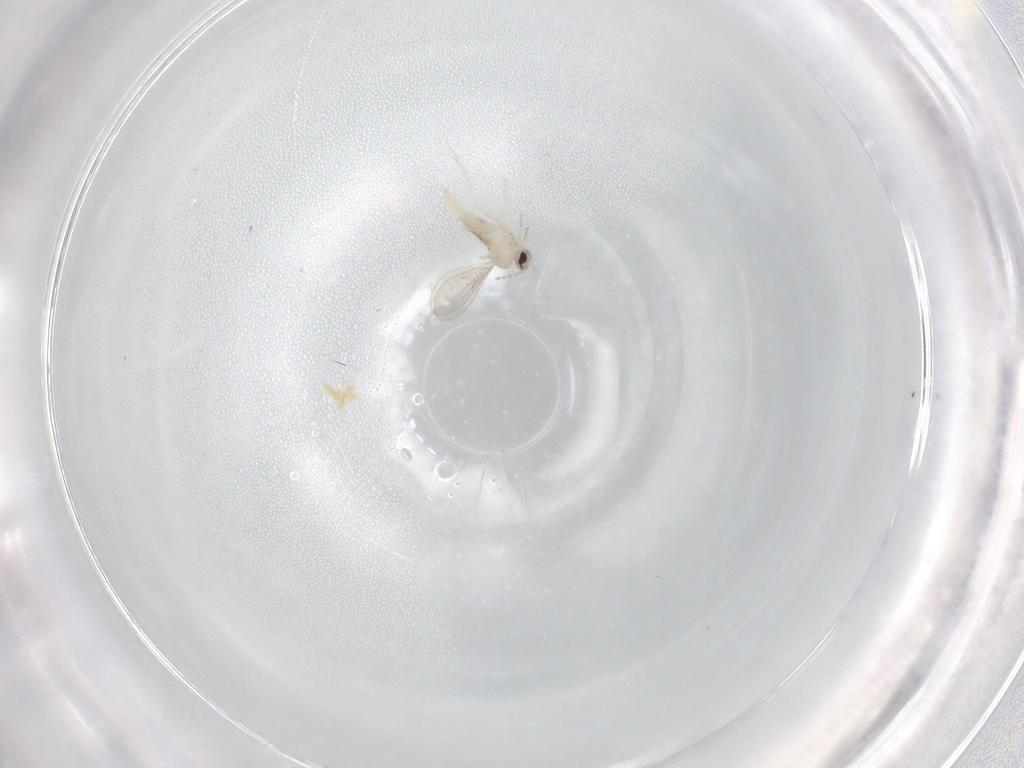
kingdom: Animalia
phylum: Arthropoda
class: Insecta
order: Diptera
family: Cecidomyiidae
